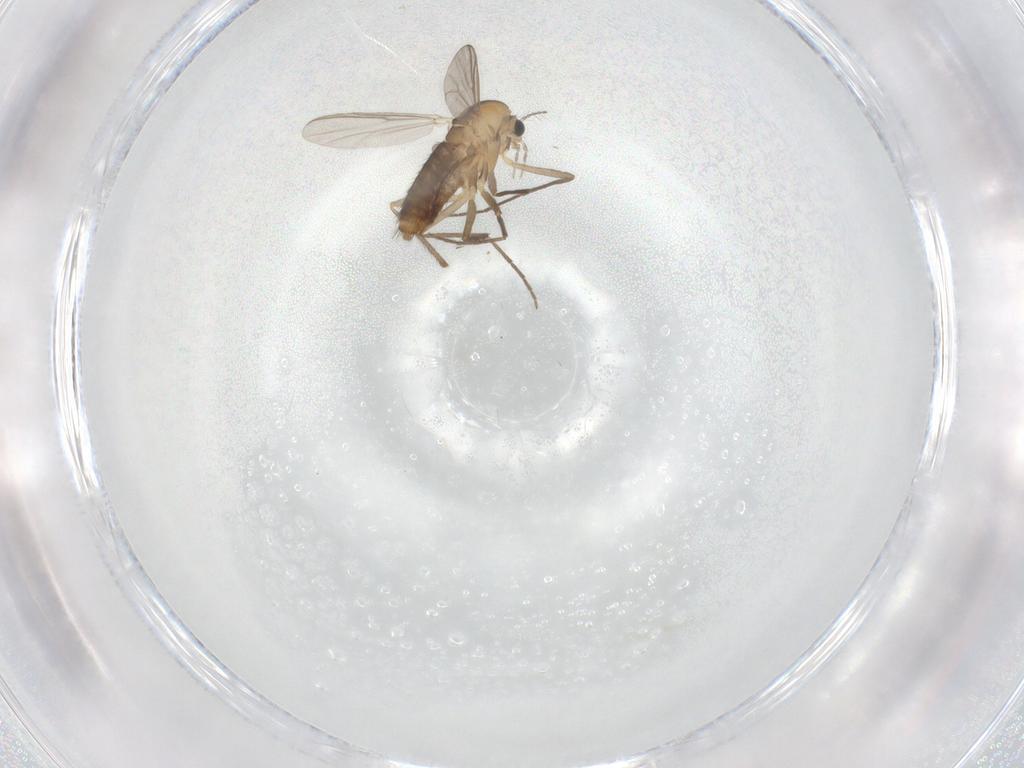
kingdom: Animalia
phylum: Arthropoda
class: Insecta
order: Diptera
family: Chironomidae
